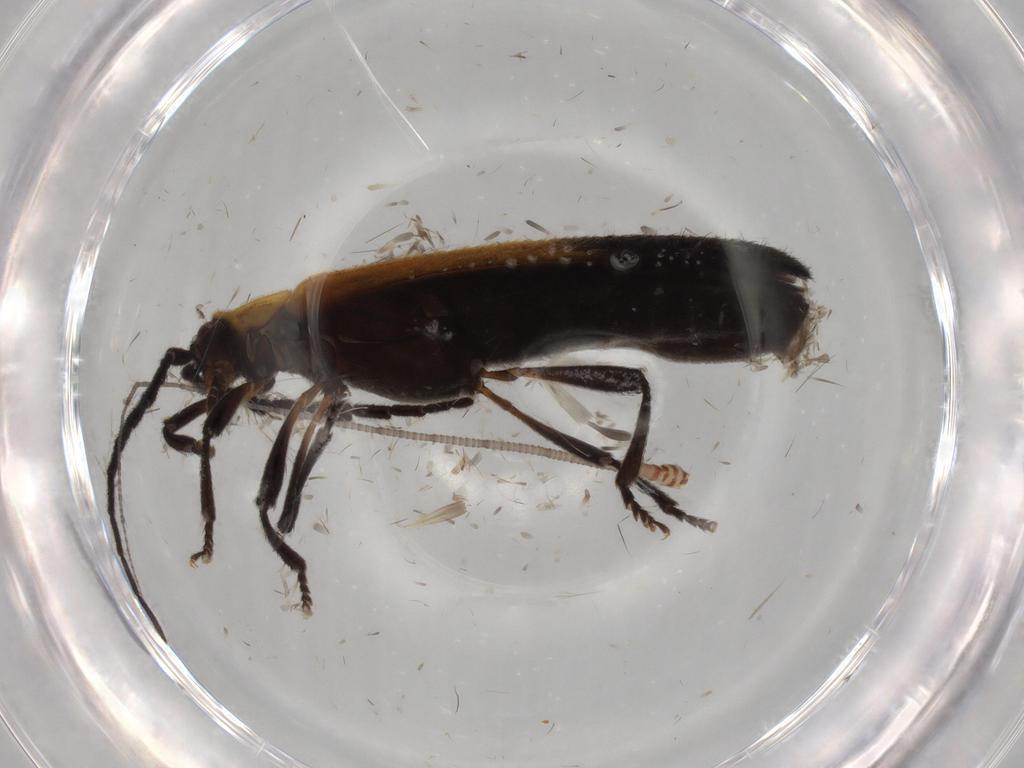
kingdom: Animalia
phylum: Arthropoda
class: Insecta
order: Coleoptera
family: Lycidae
